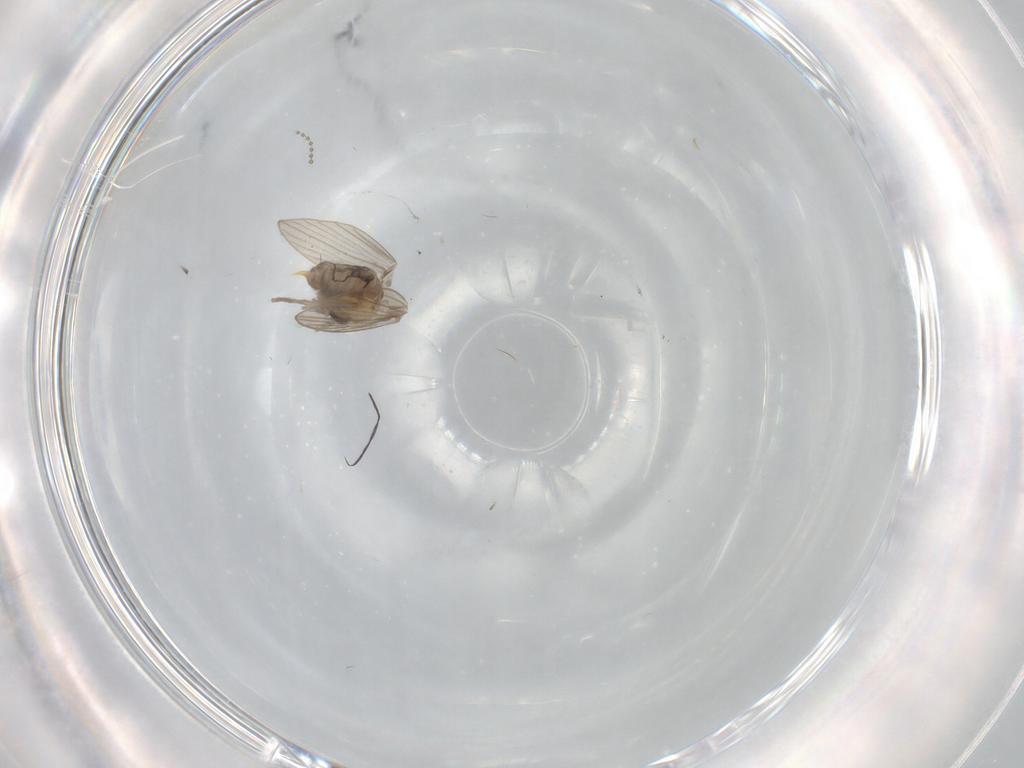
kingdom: Animalia
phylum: Arthropoda
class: Insecta
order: Diptera
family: Psychodidae
